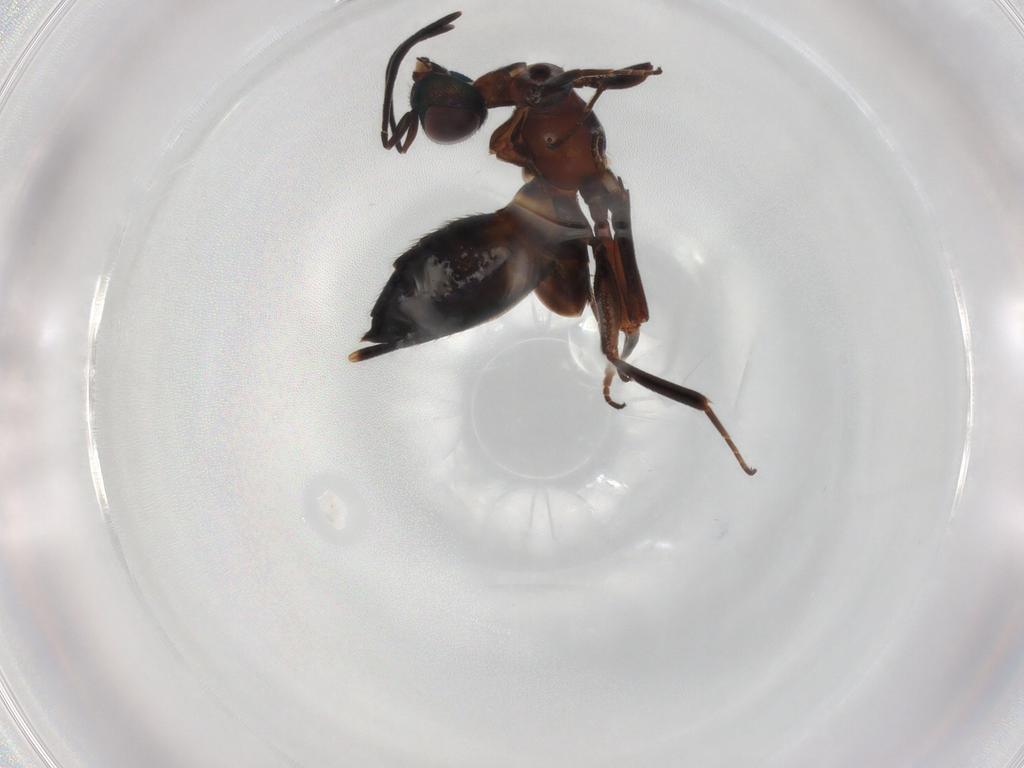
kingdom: Animalia
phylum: Arthropoda
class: Insecta
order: Hymenoptera
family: Eupelmidae
